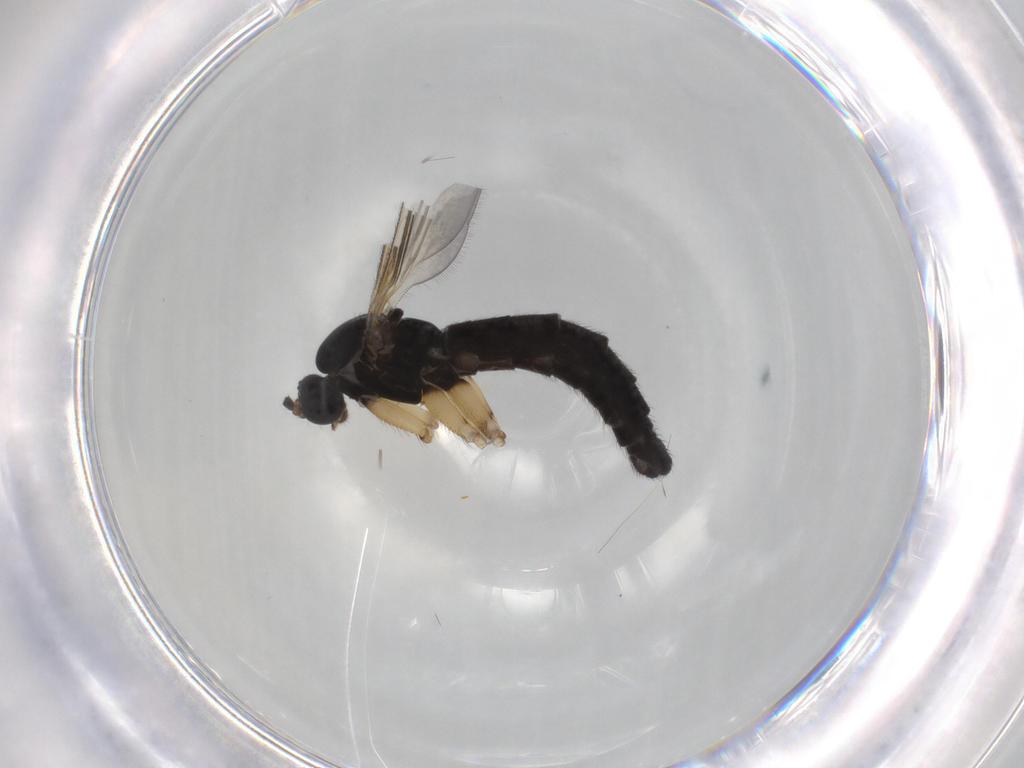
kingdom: Animalia
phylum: Arthropoda
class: Insecta
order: Diptera
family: Sciaridae
